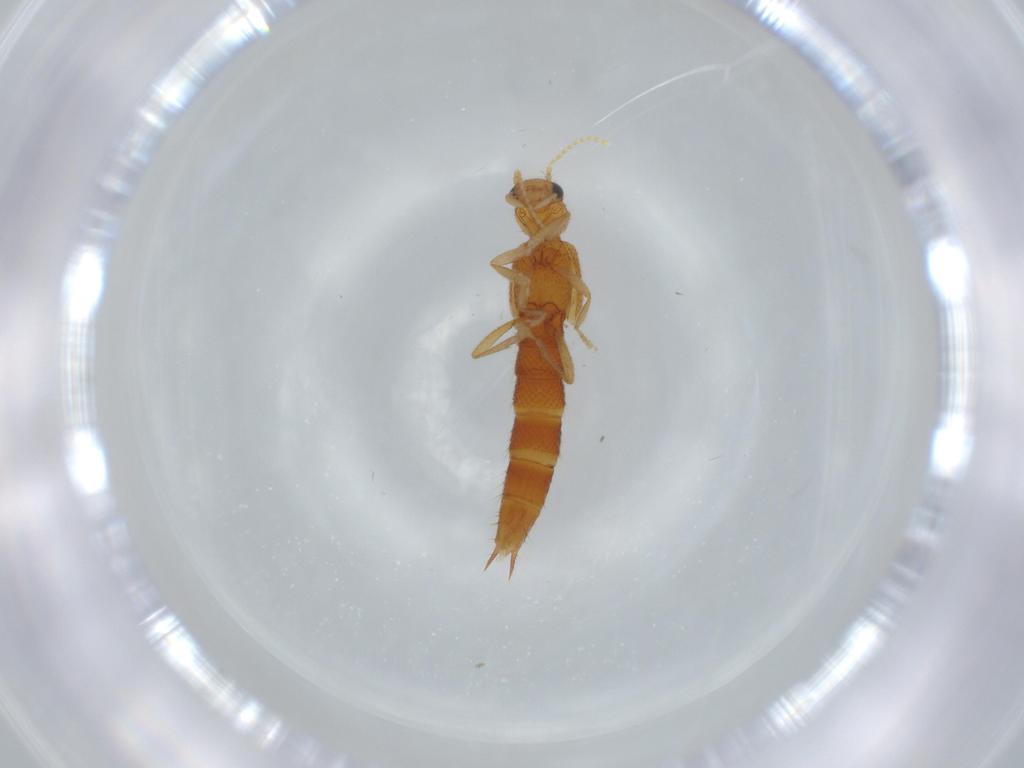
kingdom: Animalia
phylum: Arthropoda
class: Insecta
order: Coleoptera
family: Staphylinidae
